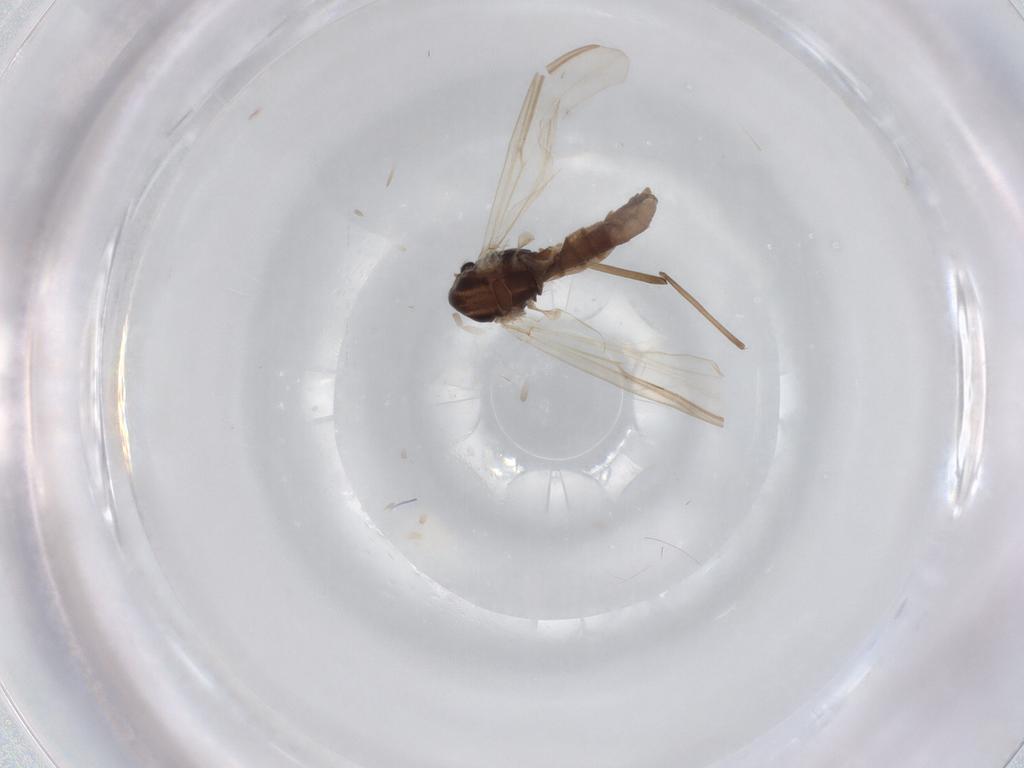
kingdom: Animalia
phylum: Arthropoda
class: Insecta
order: Diptera
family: Chironomidae
